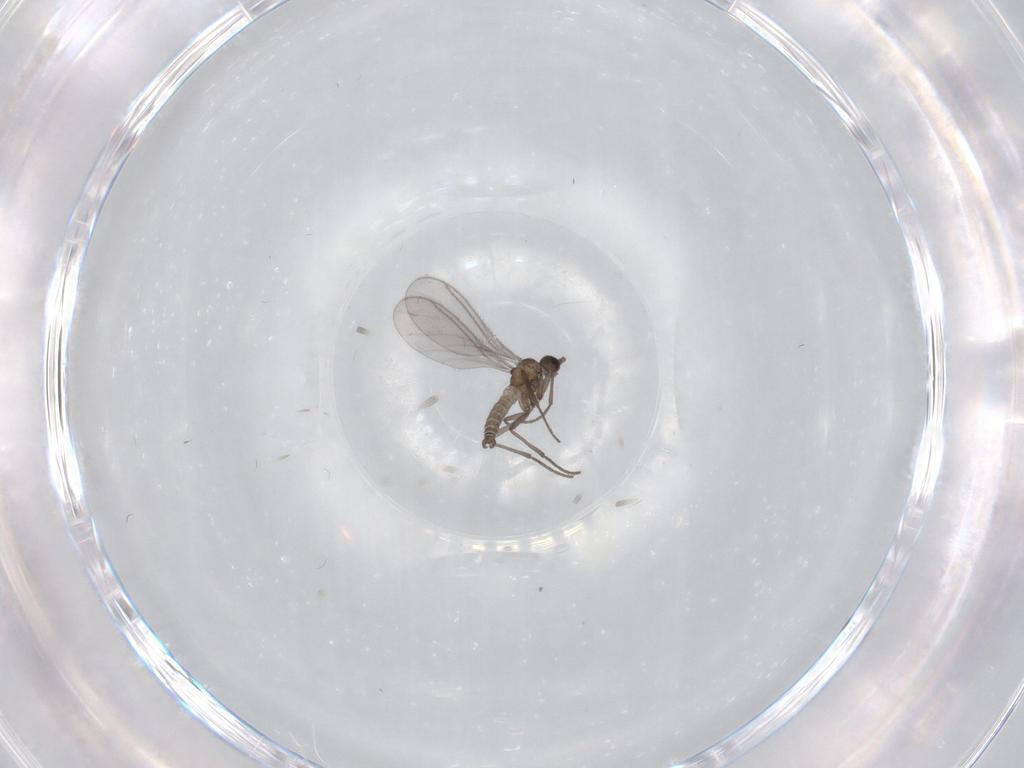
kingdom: Animalia
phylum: Arthropoda
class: Insecta
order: Diptera
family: Sciaridae
